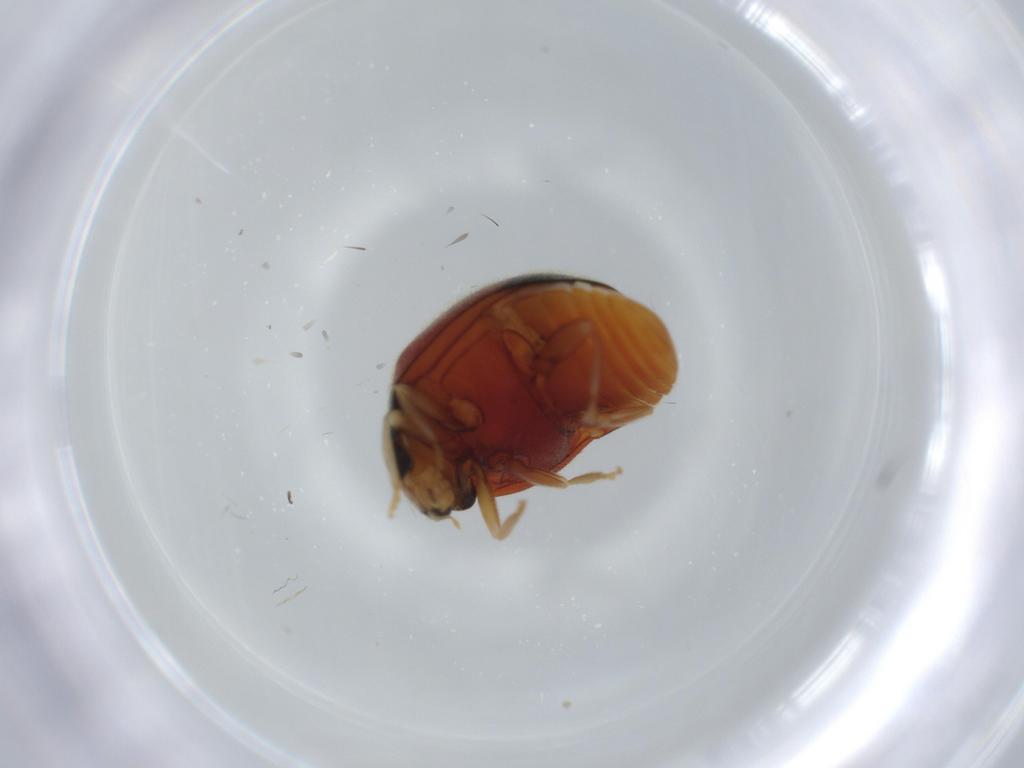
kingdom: Animalia
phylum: Arthropoda
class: Insecta
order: Coleoptera
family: Coccinellidae
